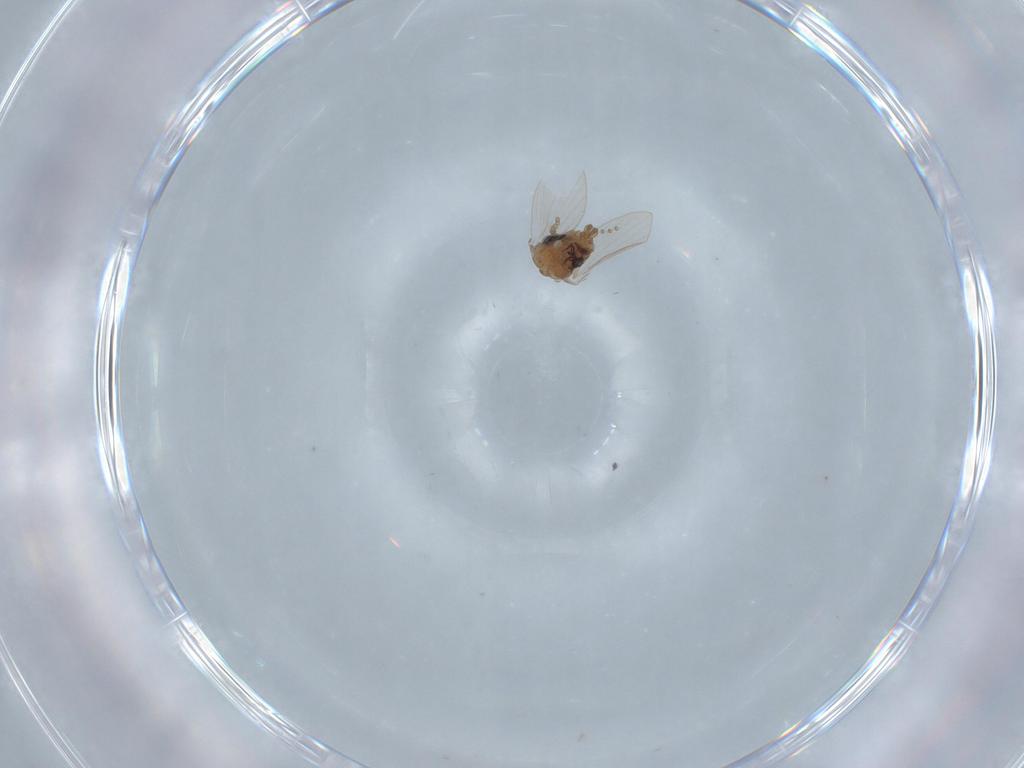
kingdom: Animalia
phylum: Arthropoda
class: Insecta
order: Diptera
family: Psychodidae
